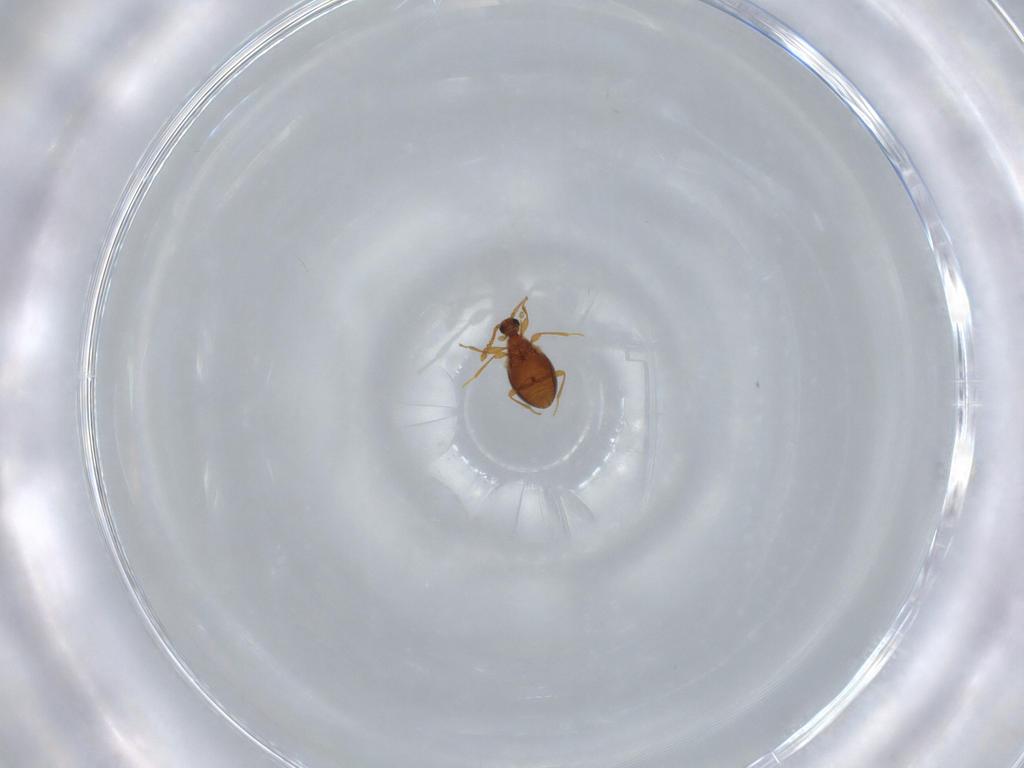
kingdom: Animalia
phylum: Arthropoda
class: Insecta
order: Coleoptera
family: Staphylinidae
